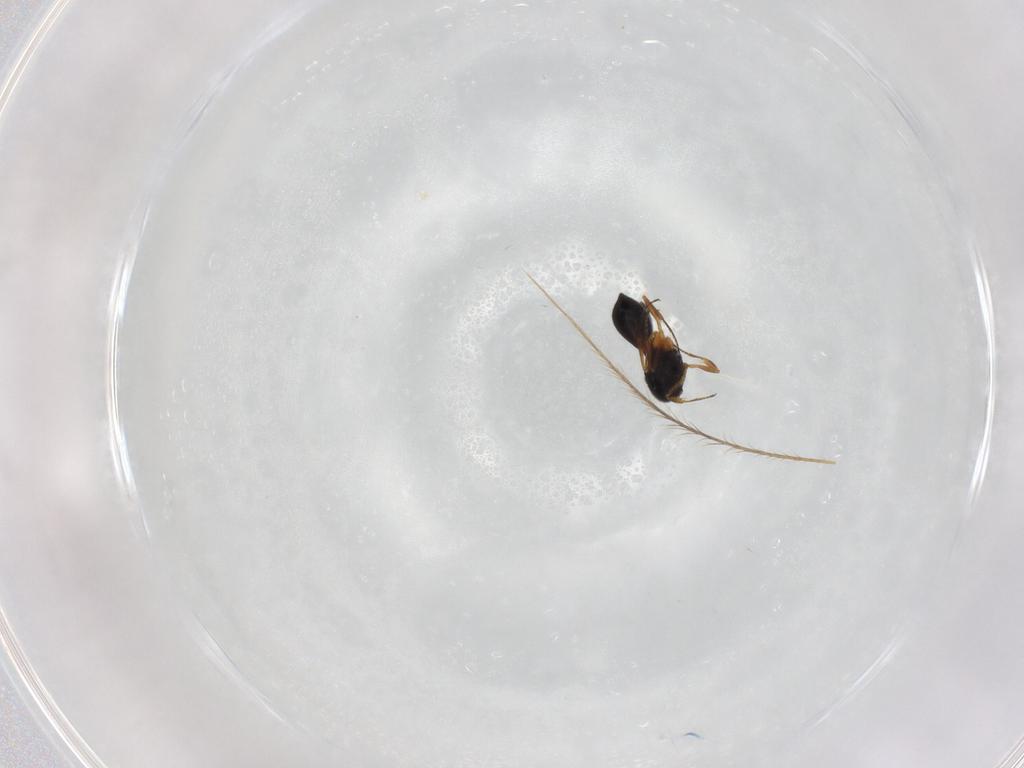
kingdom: Animalia
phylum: Arthropoda
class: Insecta
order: Hymenoptera
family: Scelionidae
